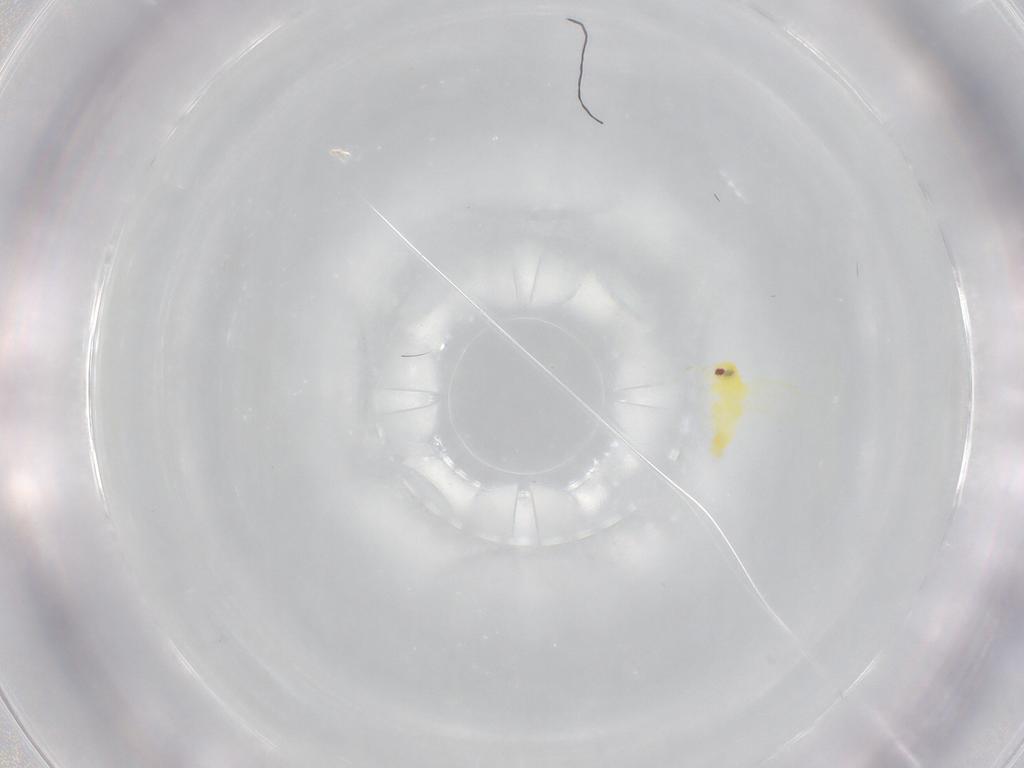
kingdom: Animalia
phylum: Arthropoda
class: Insecta
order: Hemiptera
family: Aleyrodidae
